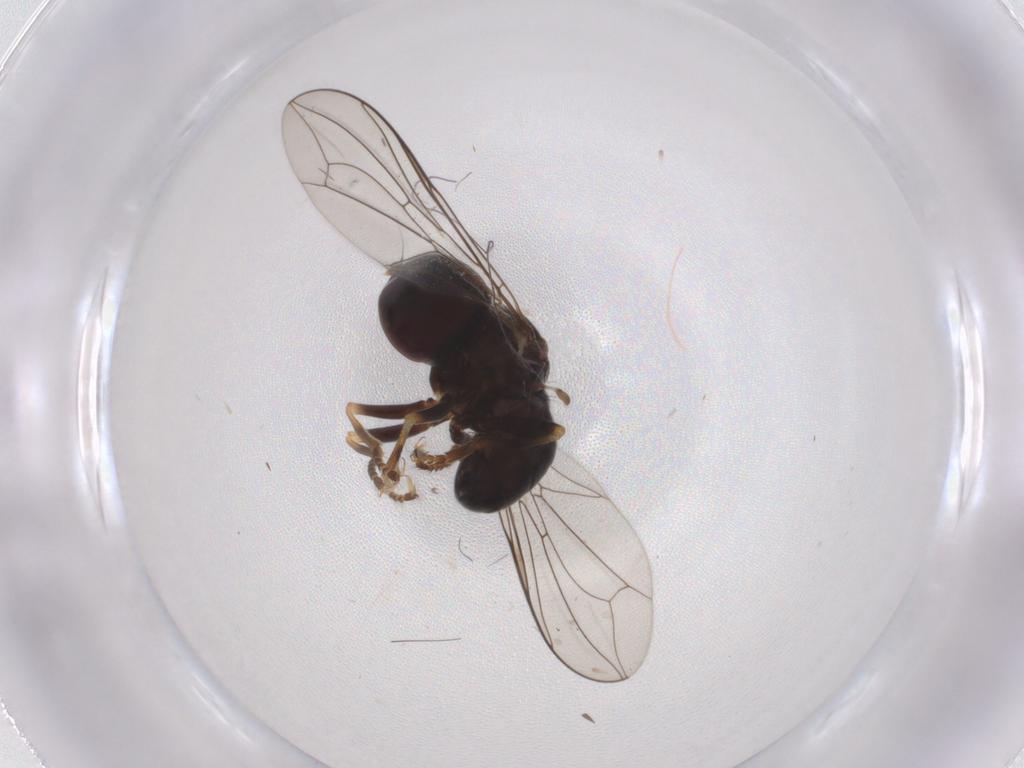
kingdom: Animalia
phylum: Arthropoda
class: Insecta
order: Diptera
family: Pipunculidae
